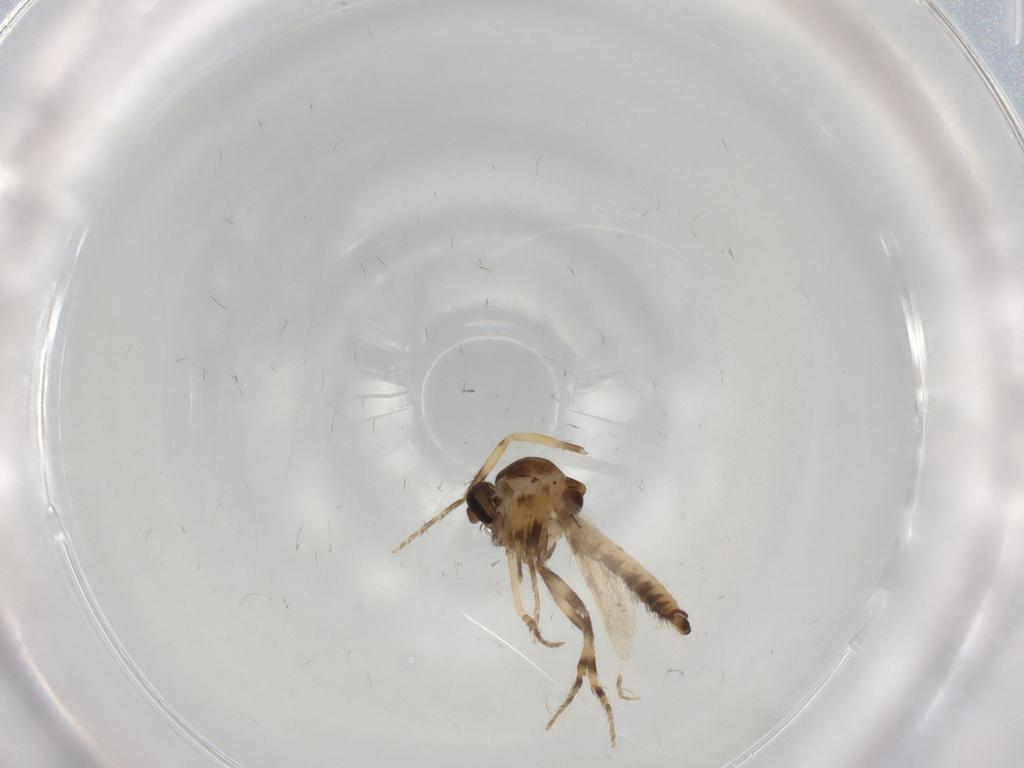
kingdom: Animalia
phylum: Arthropoda
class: Insecta
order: Diptera
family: Ceratopogonidae
